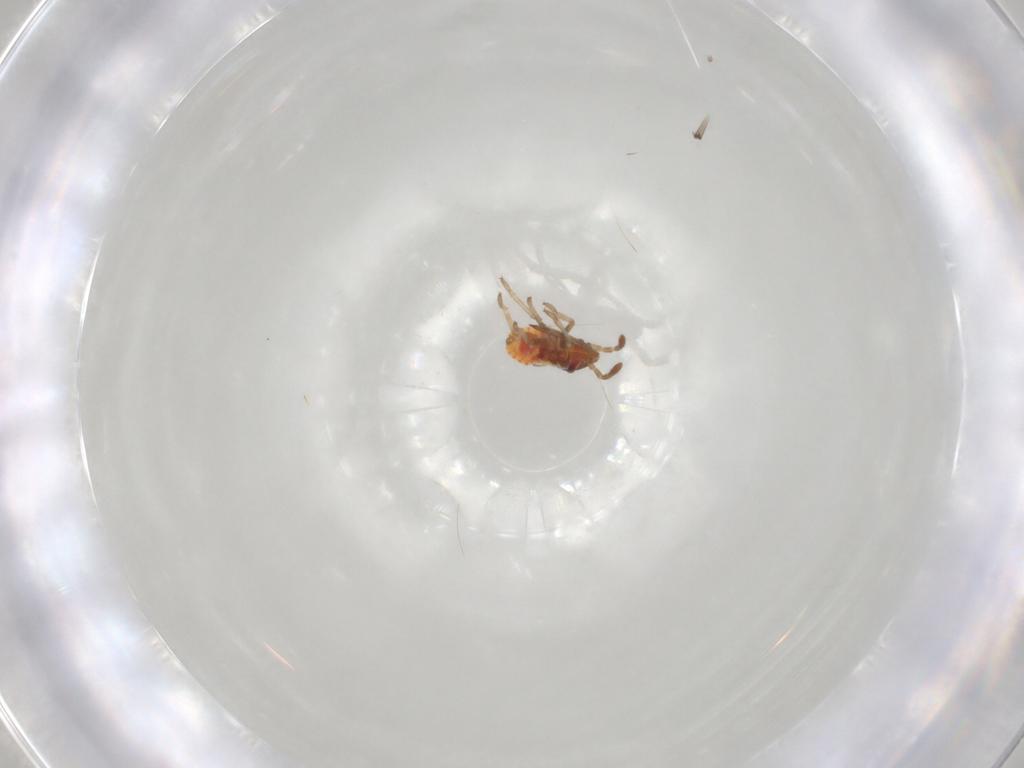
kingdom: Animalia
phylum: Arthropoda
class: Insecta
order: Hemiptera
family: Lygaeidae
